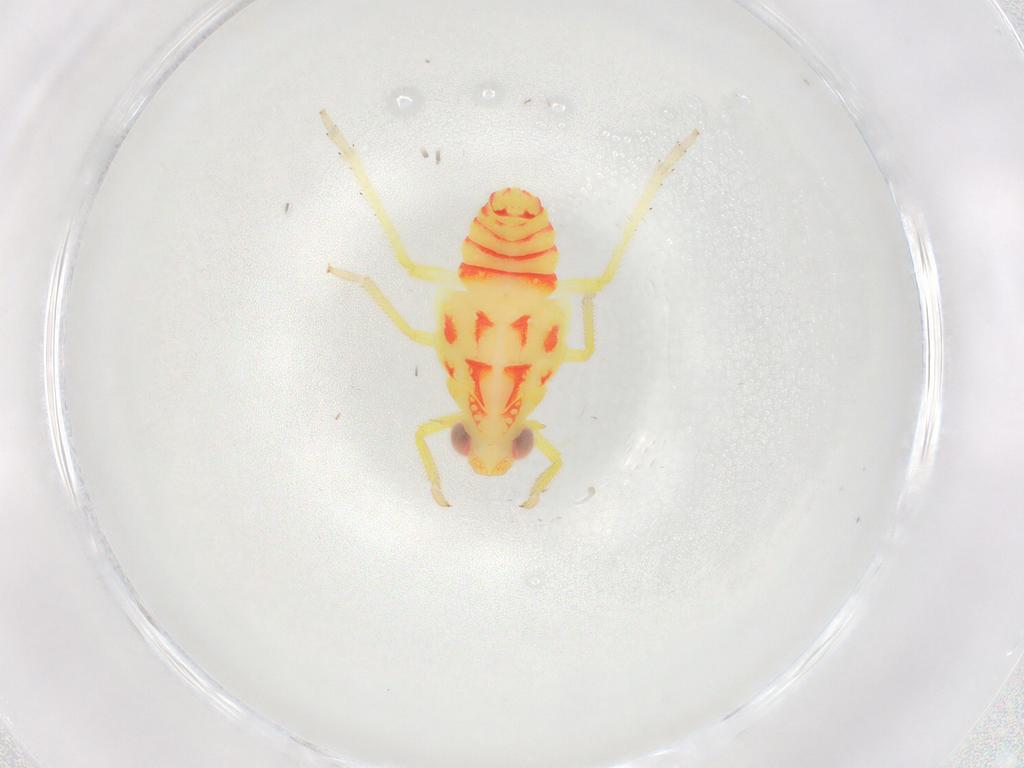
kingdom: Animalia
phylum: Arthropoda
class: Insecta
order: Hemiptera
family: Tropiduchidae
